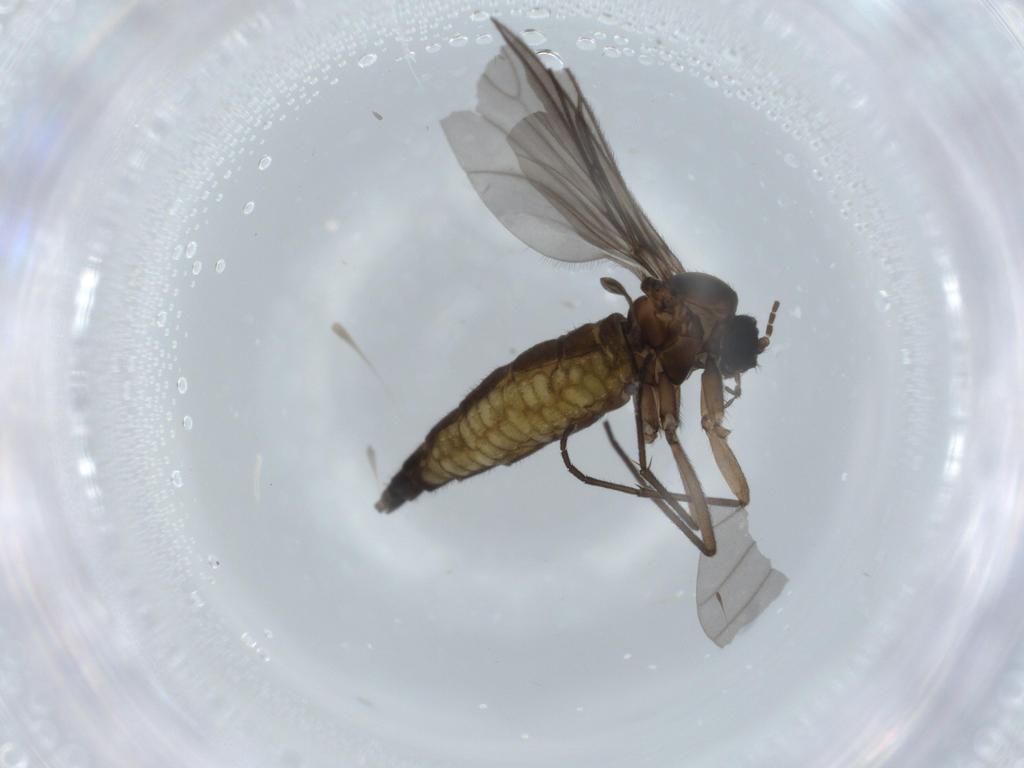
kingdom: Animalia
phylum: Arthropoda
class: Insecta
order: Diptera
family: Sciaridae
